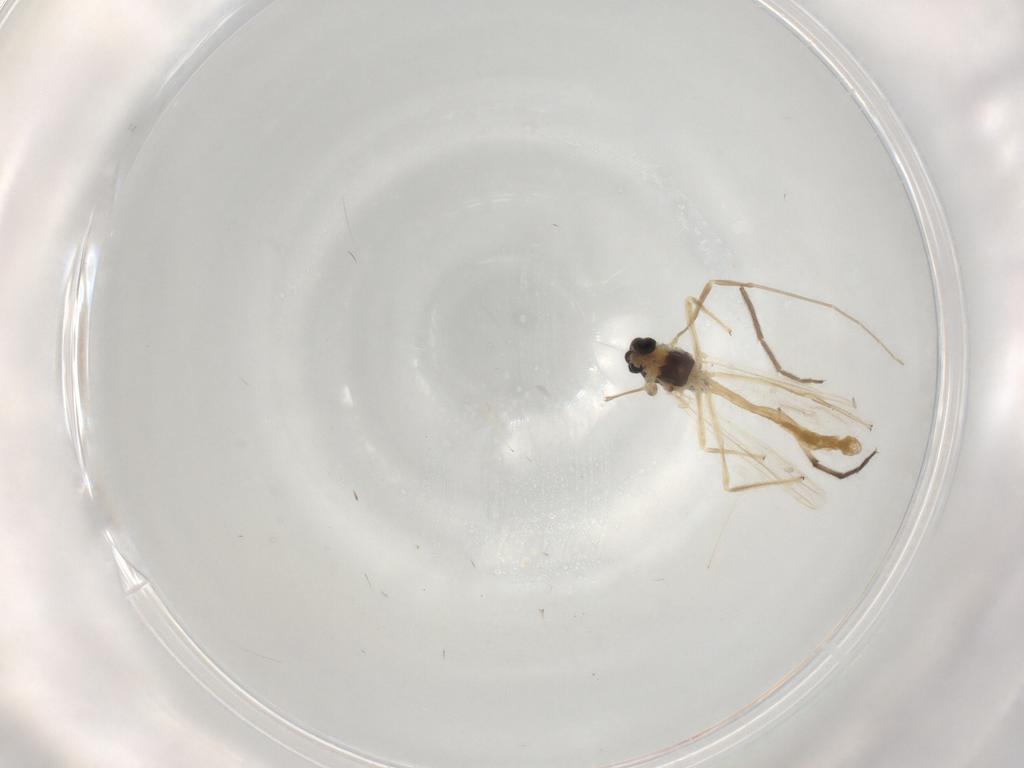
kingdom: Animalia
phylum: Arthropoda
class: Insecta
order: Diptera
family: Chironomidae
